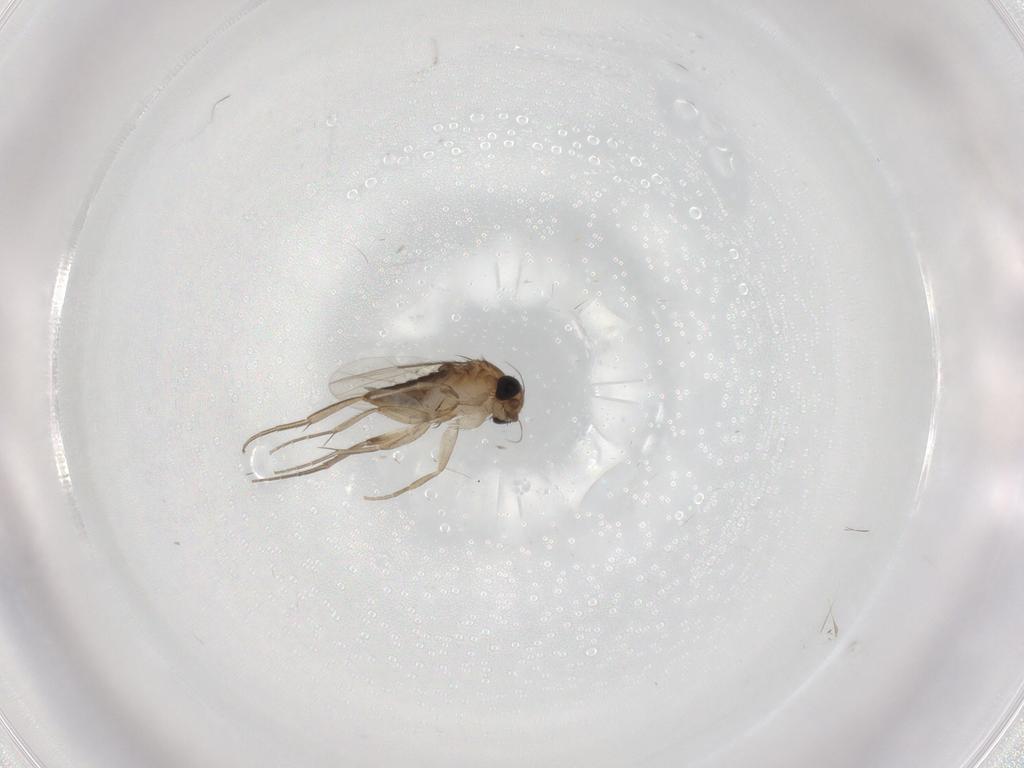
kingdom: Animalia
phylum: Arthropoda
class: Insecta
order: Diptera
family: Phoridae
